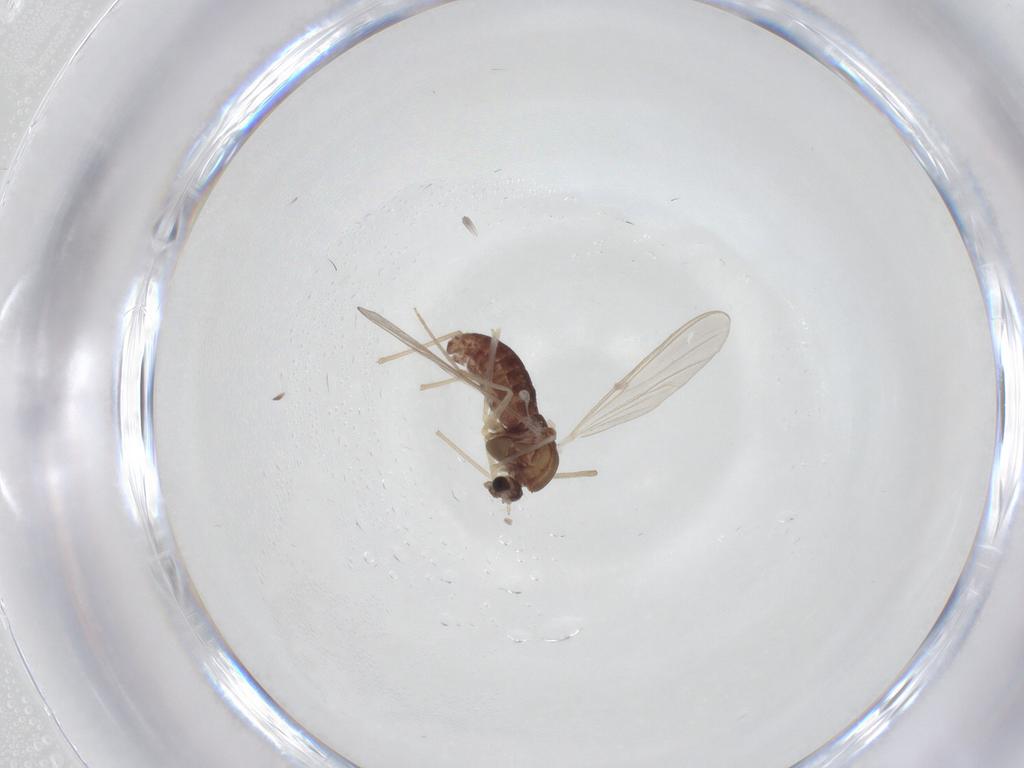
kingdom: Animalia
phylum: Arthropoda
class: Insecta
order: Diptera
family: Chironomidae
